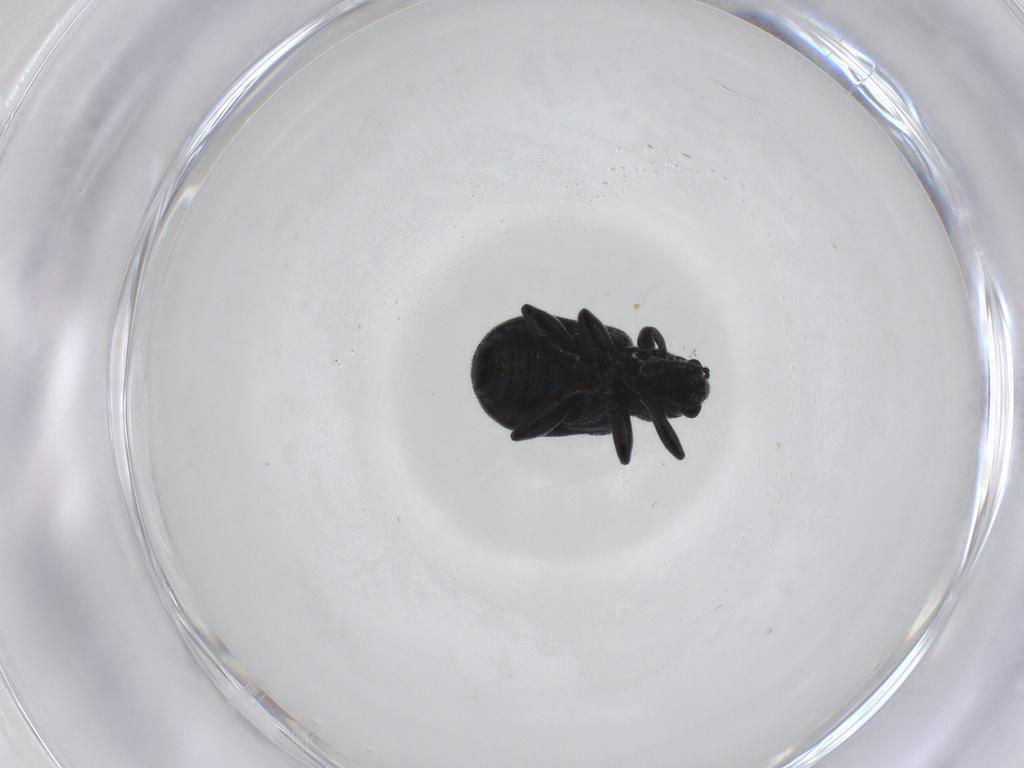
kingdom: Animalia
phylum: Arthropoda
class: Insecta
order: Coleoptera
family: Attelabidae
